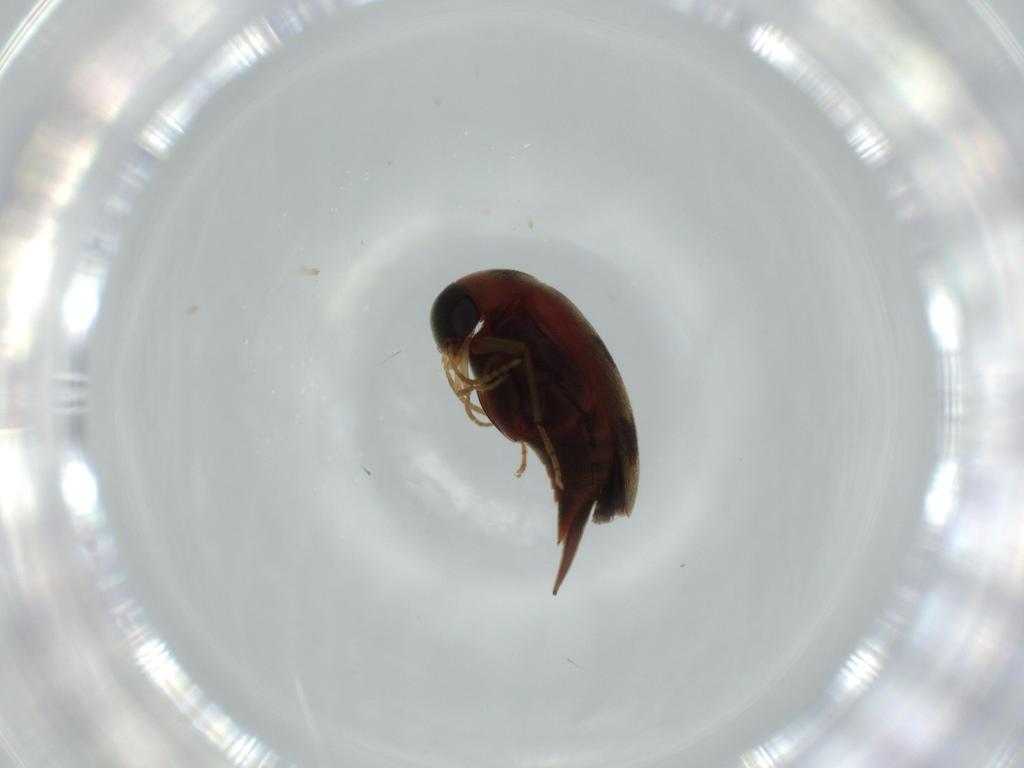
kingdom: Animalia
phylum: Arthropoda
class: Insecta
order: Coleoptera
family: Mordellidae
